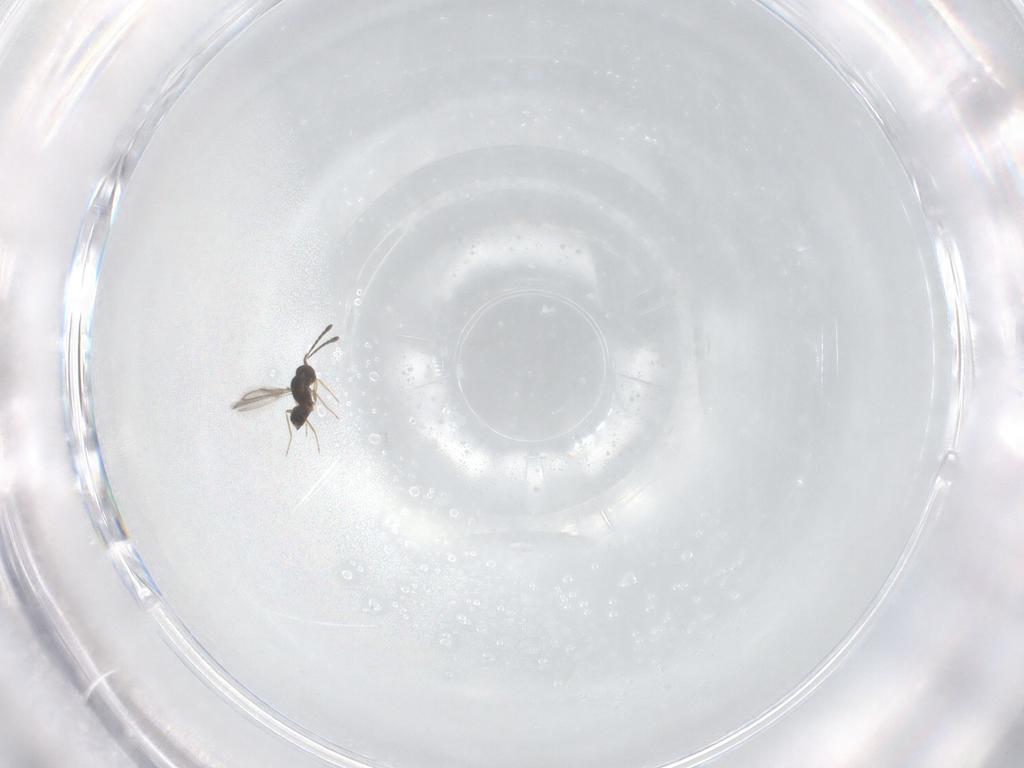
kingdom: Animalia
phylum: Arthropoda
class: Insecta
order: Hymenoptera
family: Mymaridae
